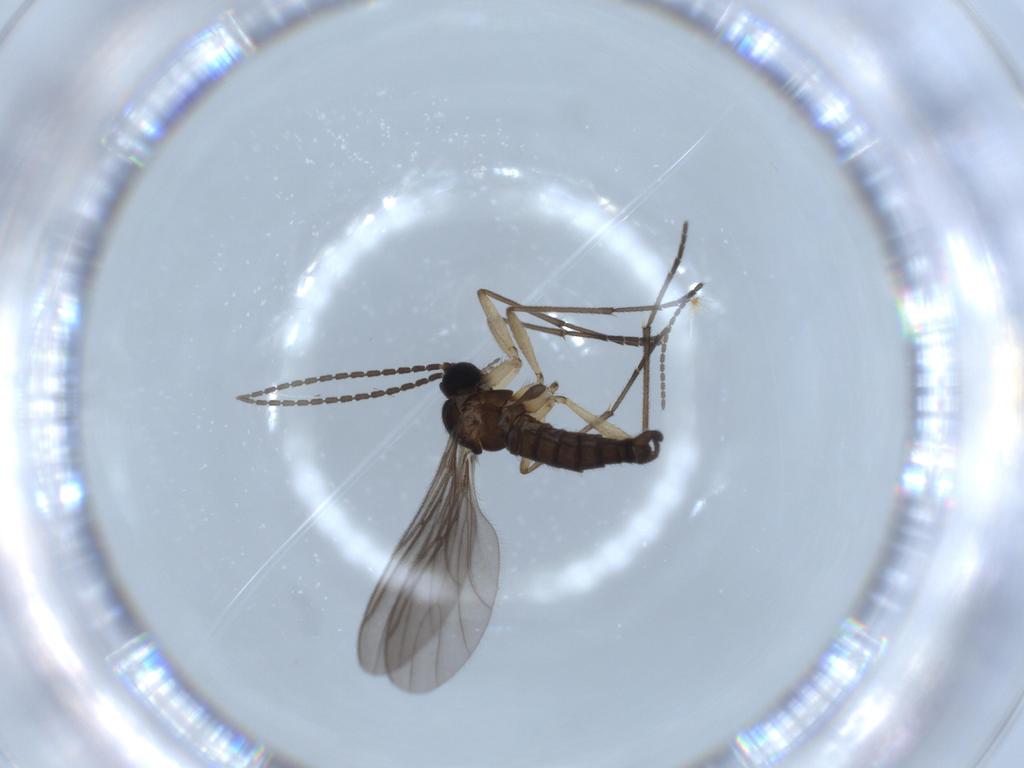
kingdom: Animalia
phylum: Arthropoda
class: Insecta
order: Diptera
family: Sciaridae
